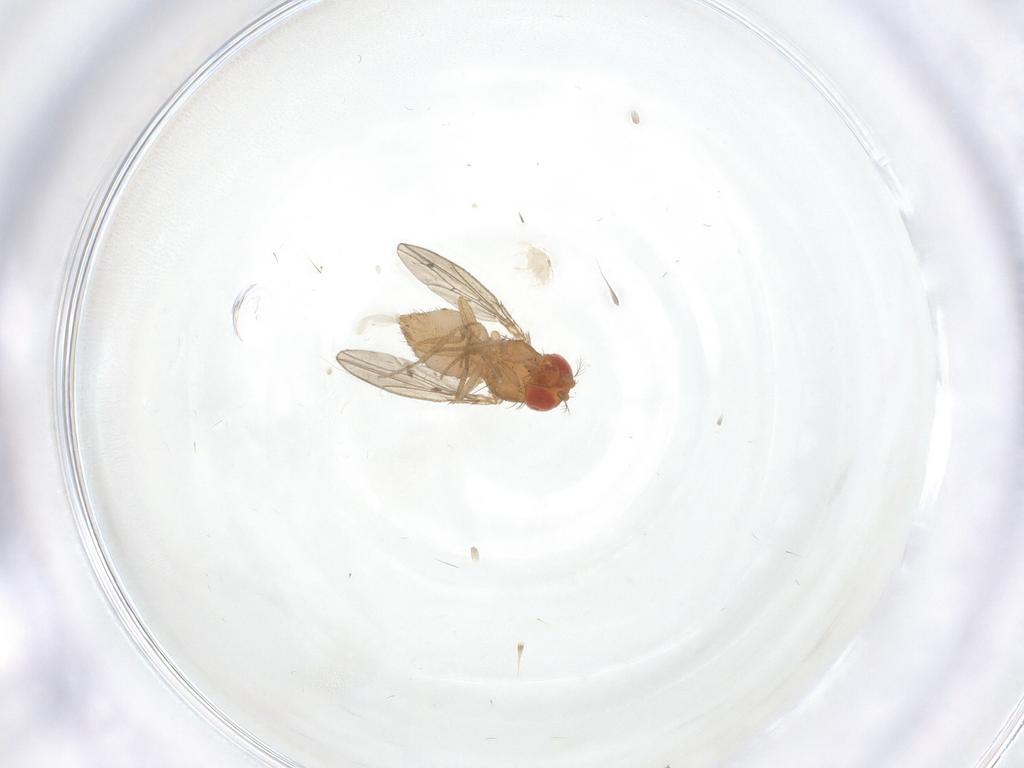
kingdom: Animalia
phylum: Arthropoda
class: Insecta
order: Diptera
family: Drosophilidae
